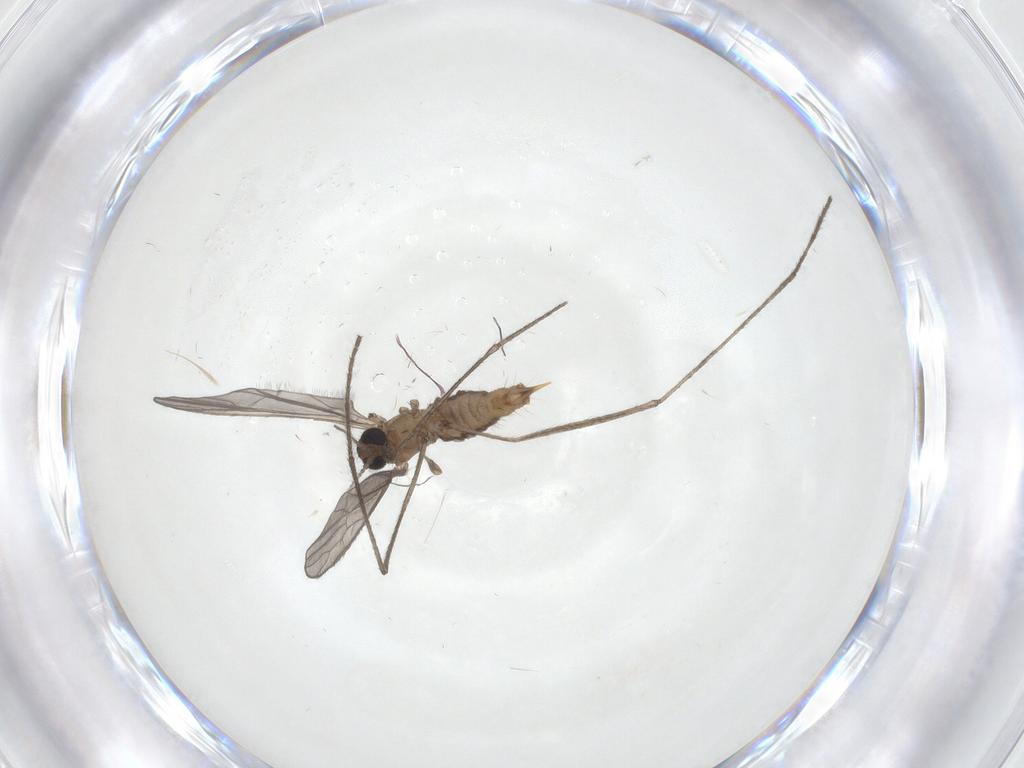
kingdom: Animalia
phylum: Arthropoda
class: Insecta
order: Diptera
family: Limoniidae
